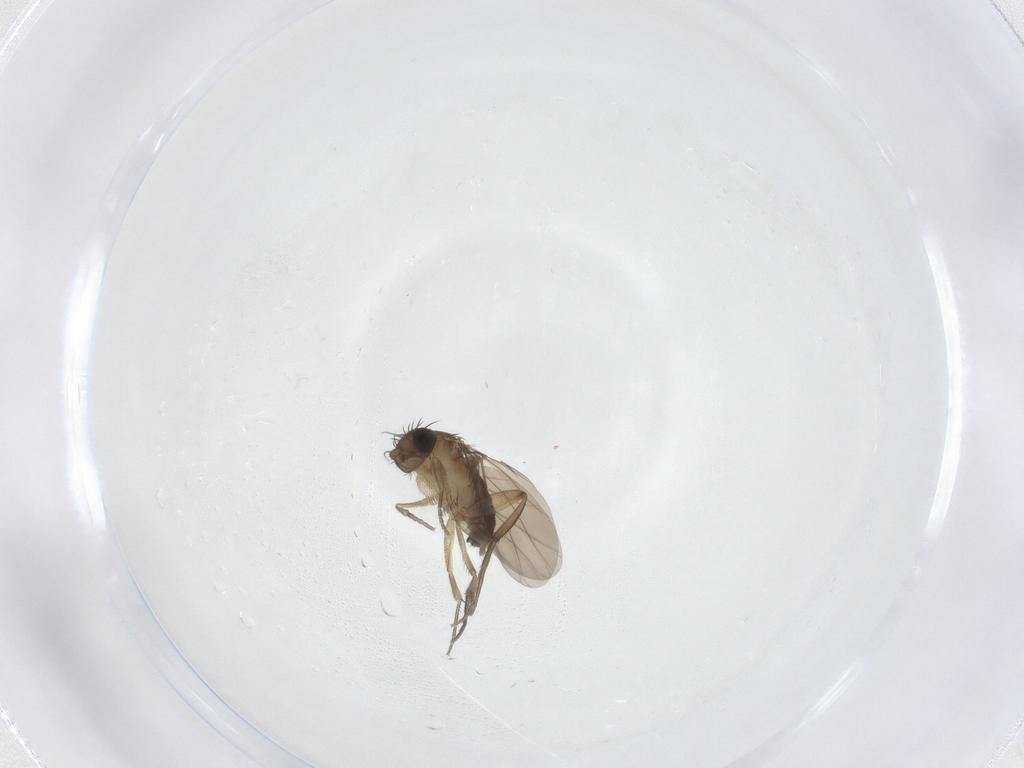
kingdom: Animalia
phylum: Arthropoda
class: Insecta
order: Diptera
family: Phoridae
